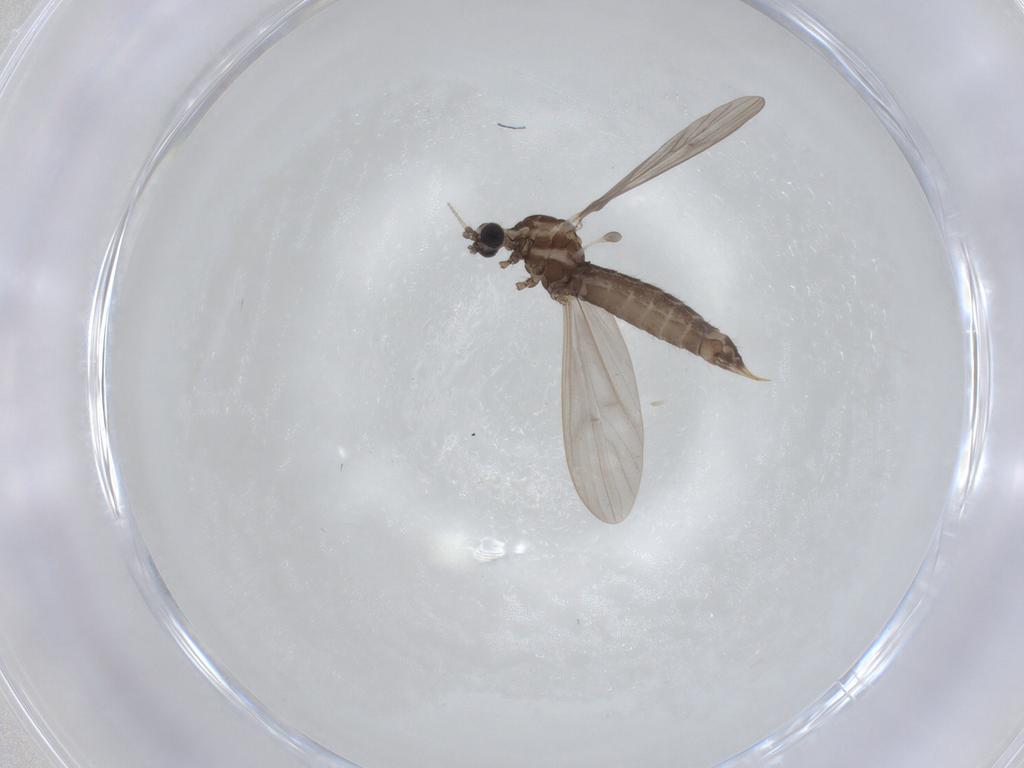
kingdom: Animalia
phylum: Arthropoda
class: Insecta
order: Diptera
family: Limoniidae
